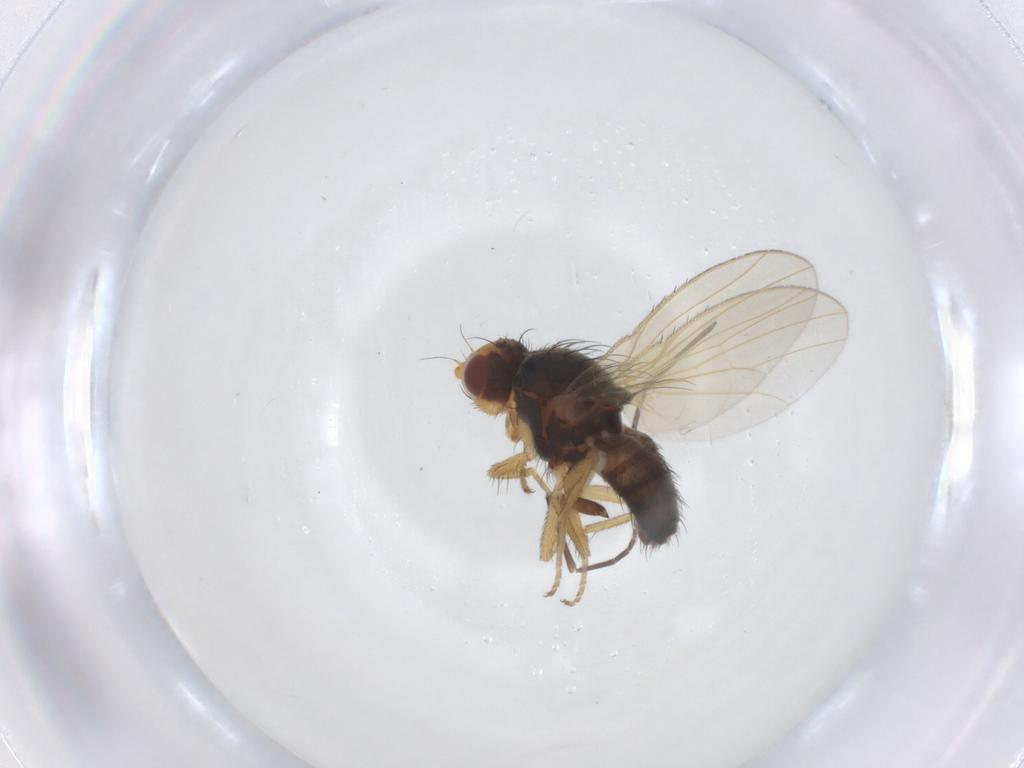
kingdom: Animalia
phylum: Arthropoda
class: Insecta
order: Diptera
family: Heleomyzidae
